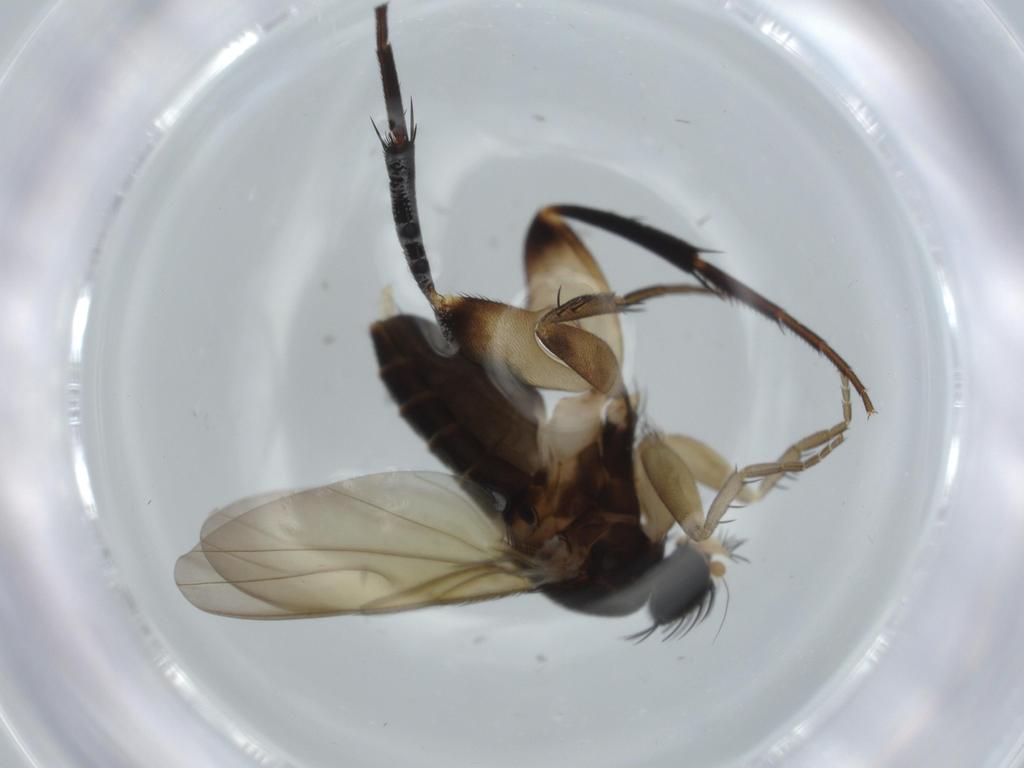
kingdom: Animalia
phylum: Arthropoda
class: Insecta
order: Diptera
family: Phoridae
